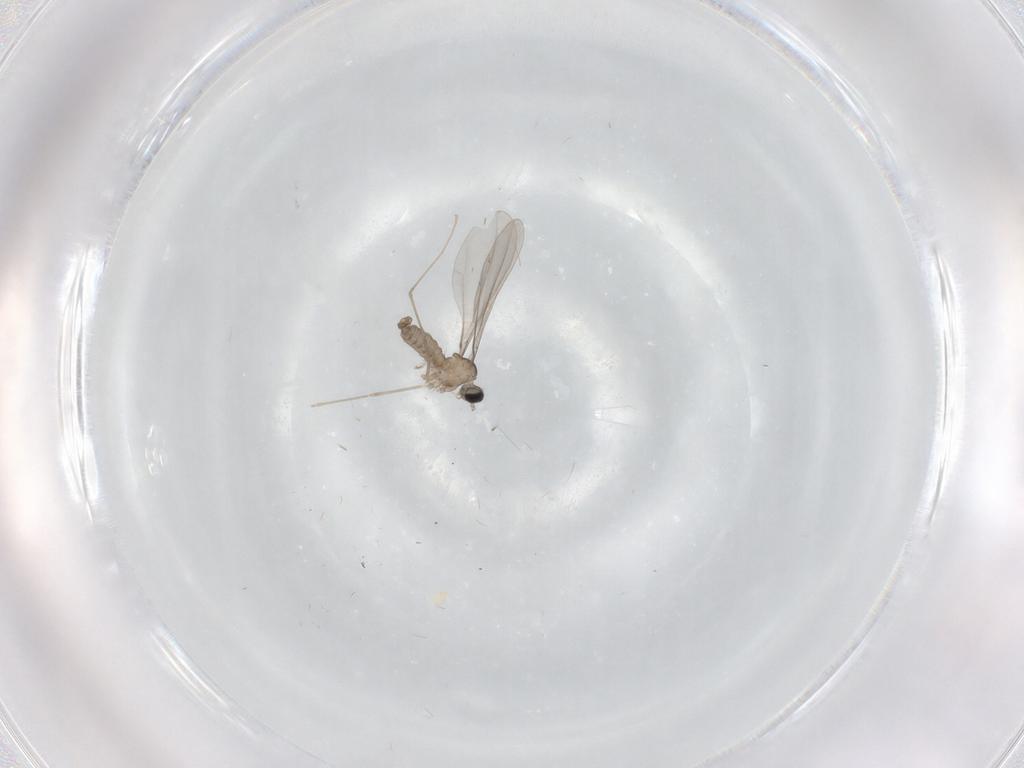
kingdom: Animalia
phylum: Arthropoda
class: Insecta
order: Diptera
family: Cecidomyiidae
